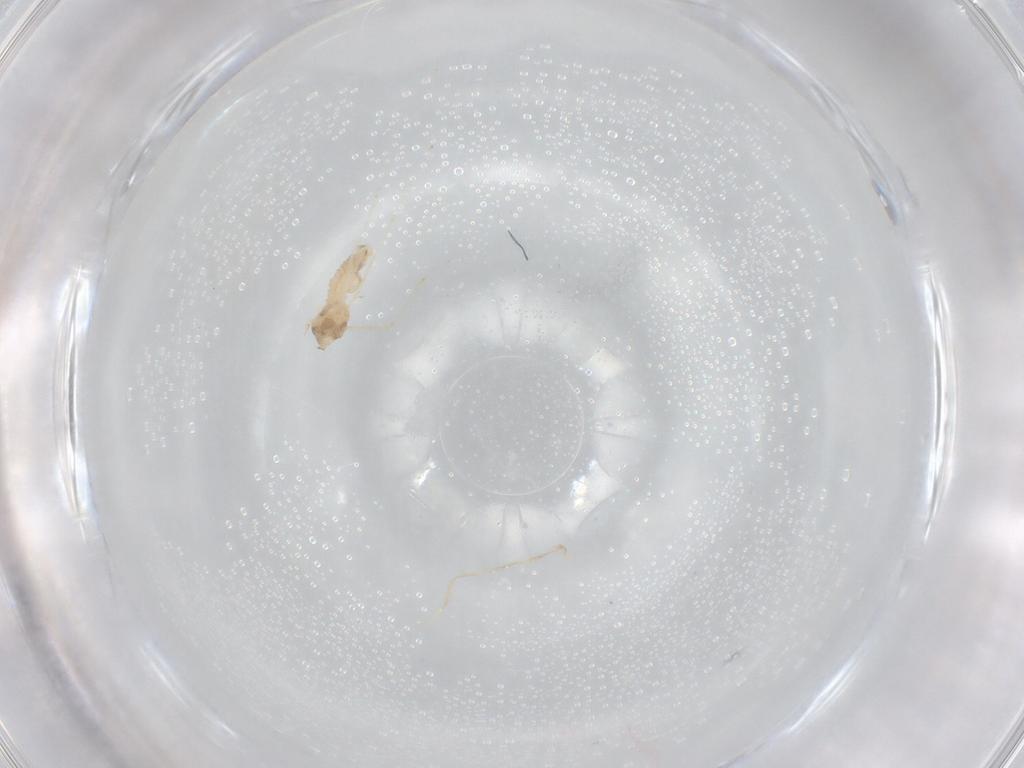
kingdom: Animalia
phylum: Arthropoda
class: Insecta
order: Diptera
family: Cecidomyiidae
